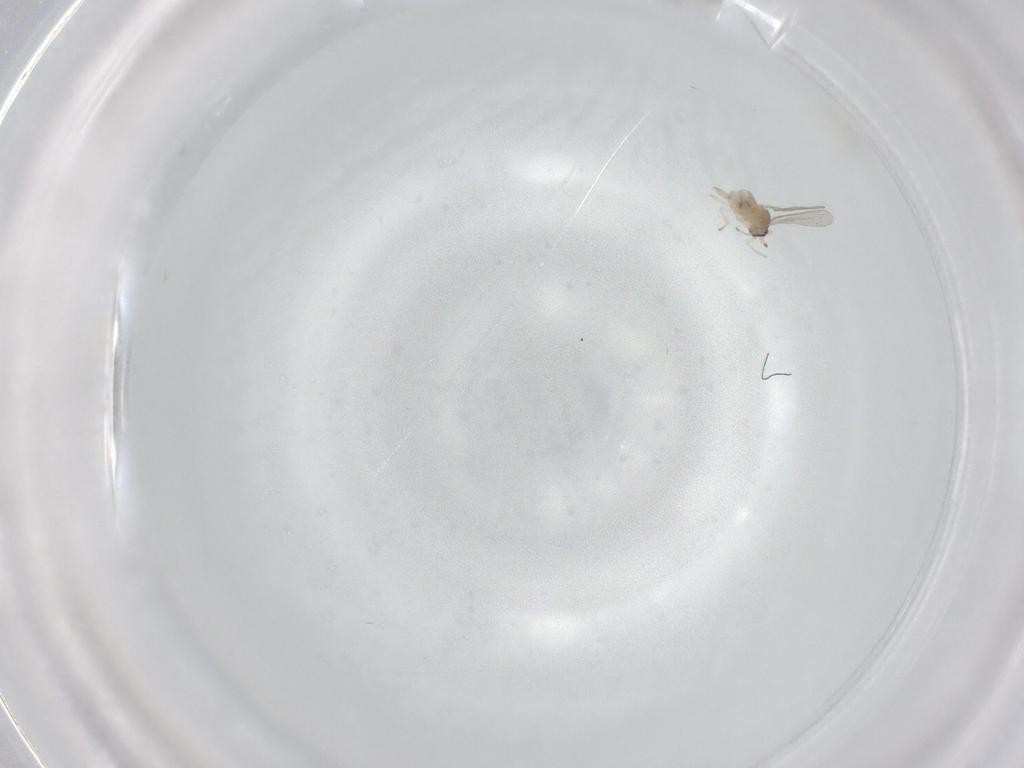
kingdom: Animalia
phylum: Arthropoda
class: Insecta
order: Diptera
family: Cecidomyiidae
